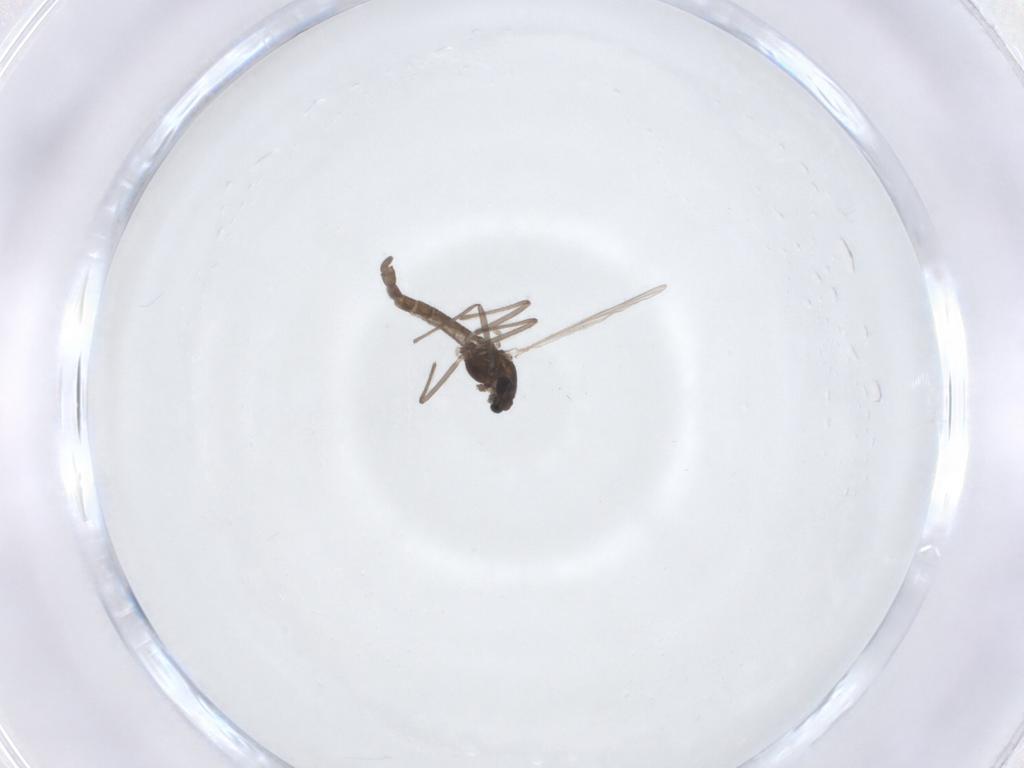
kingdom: Animalia
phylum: Arthropoda
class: Insecta
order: Diptera
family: Chironomidae
